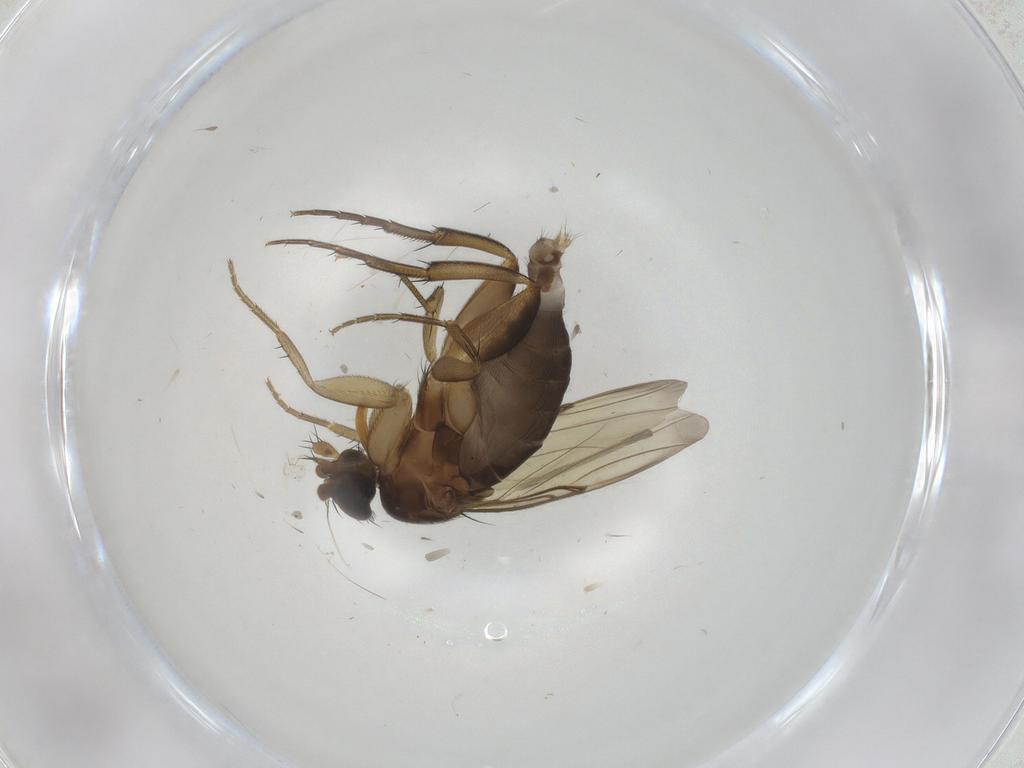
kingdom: Animalia
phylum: Arthropoda
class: Insecta
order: Diptera
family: Phoridae
